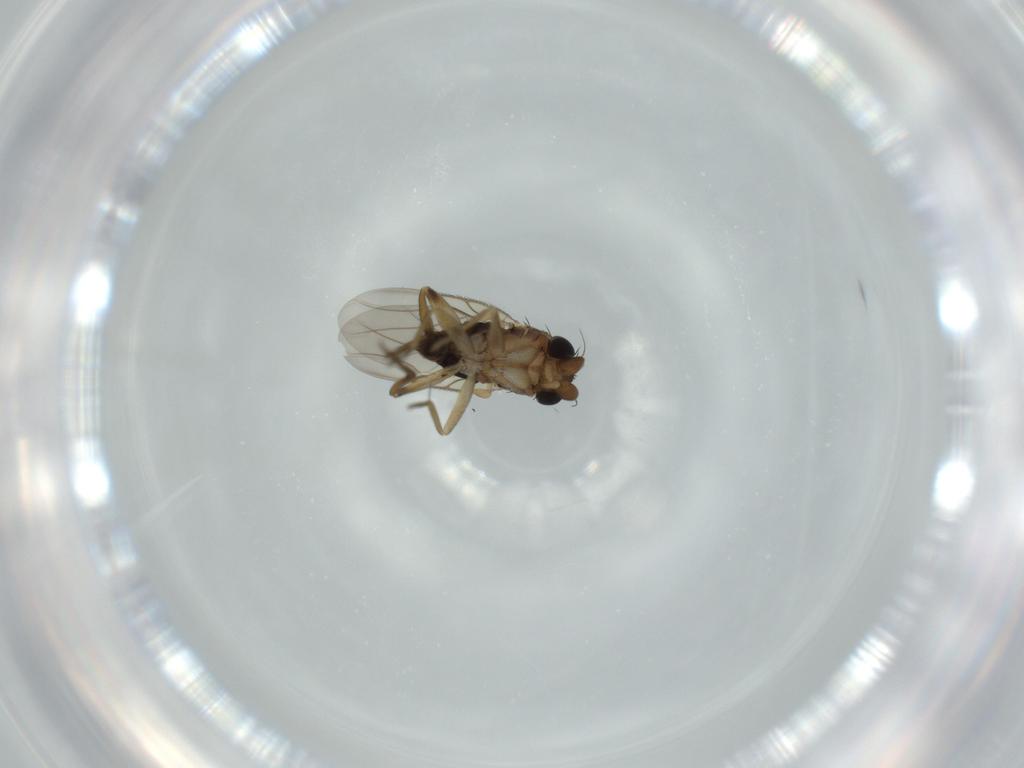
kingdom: Animalia
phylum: Arthropoda
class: Insecta
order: Diptera
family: Phoridae
